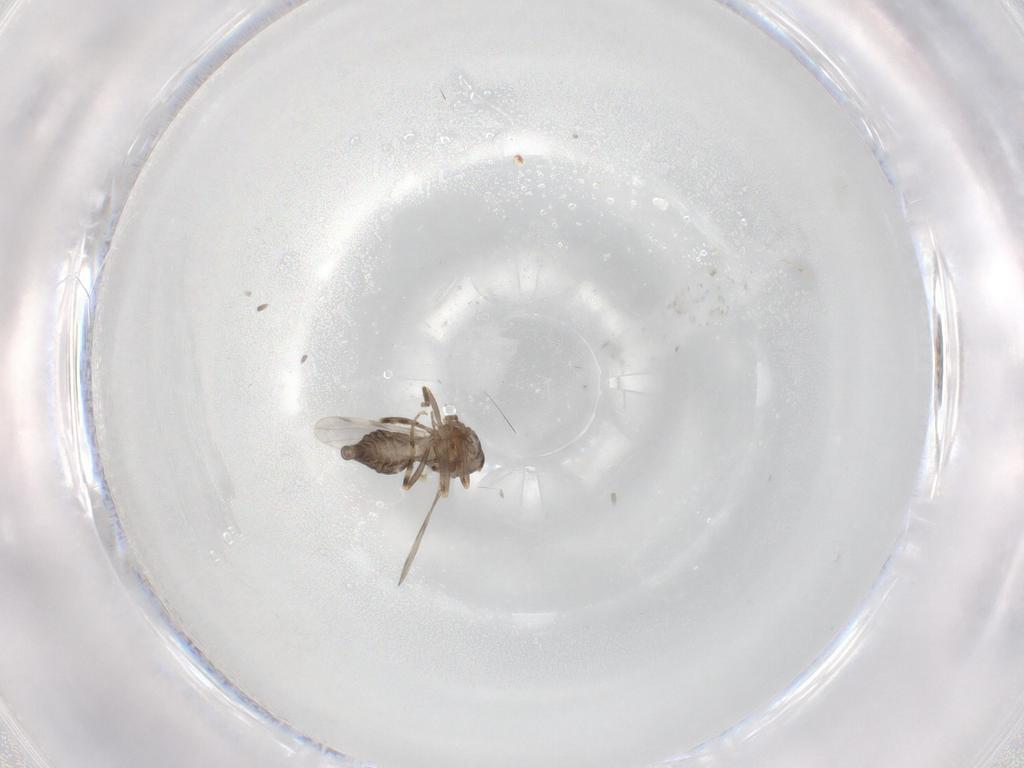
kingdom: Animalia
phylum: Arthropoda
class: Insecta
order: Diptera
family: Ceratopogonidae
